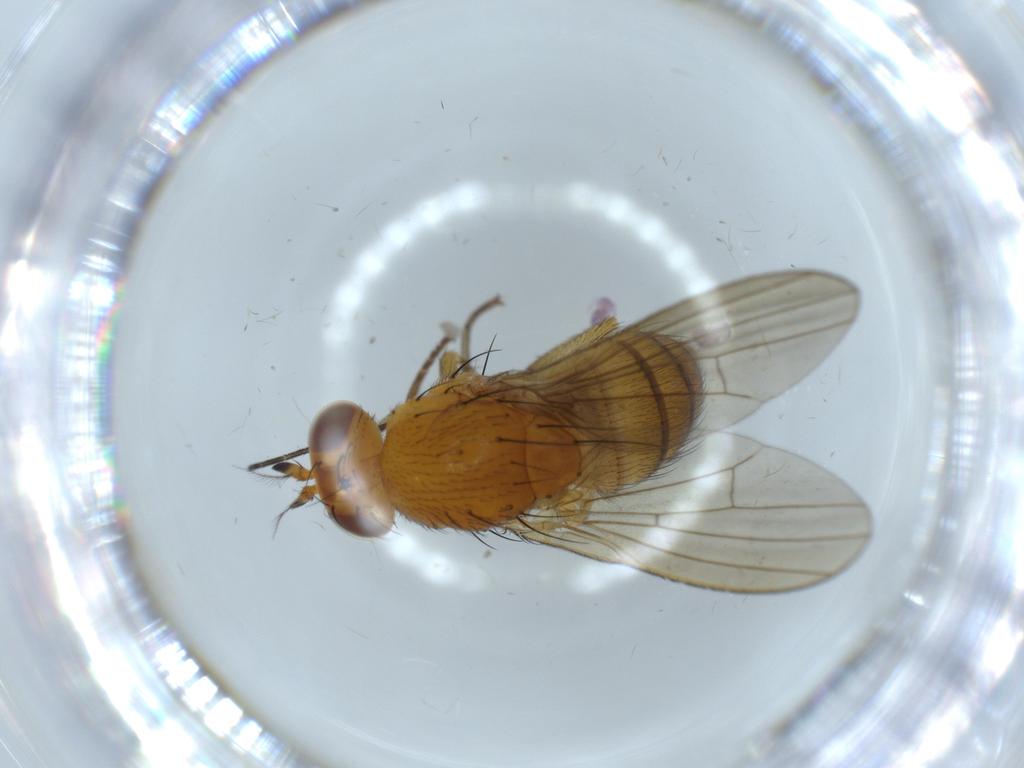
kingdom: Animalia
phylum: Arthropoda
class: Insecta
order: Diptera
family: Lauxaniidae
